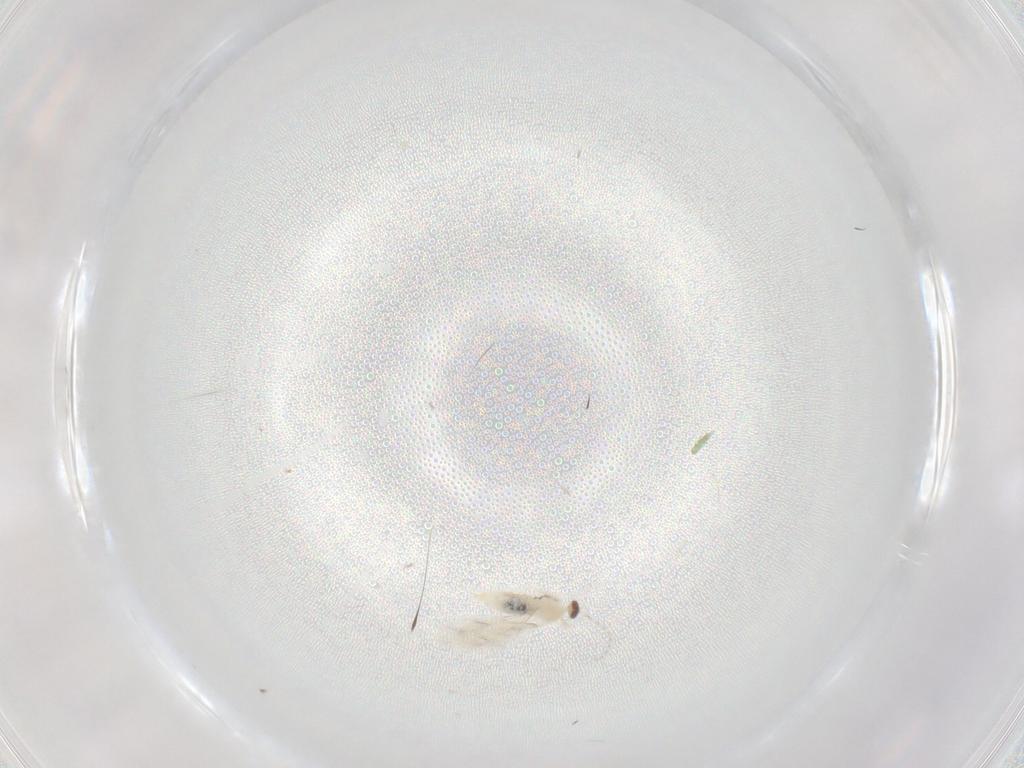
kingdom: Animalia
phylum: Arthropoda
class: Insecta
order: Diptera
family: Cecidomyiidae
